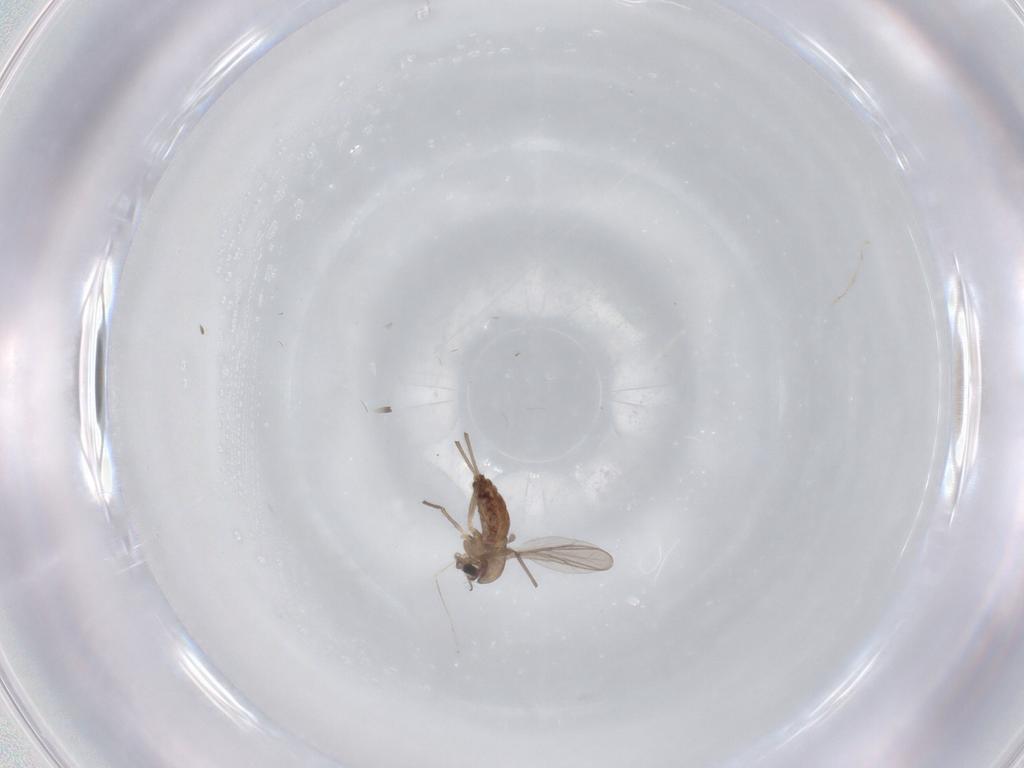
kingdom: Animalia
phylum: Arthropoda
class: Insecta
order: Diptera
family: Chironomidae
